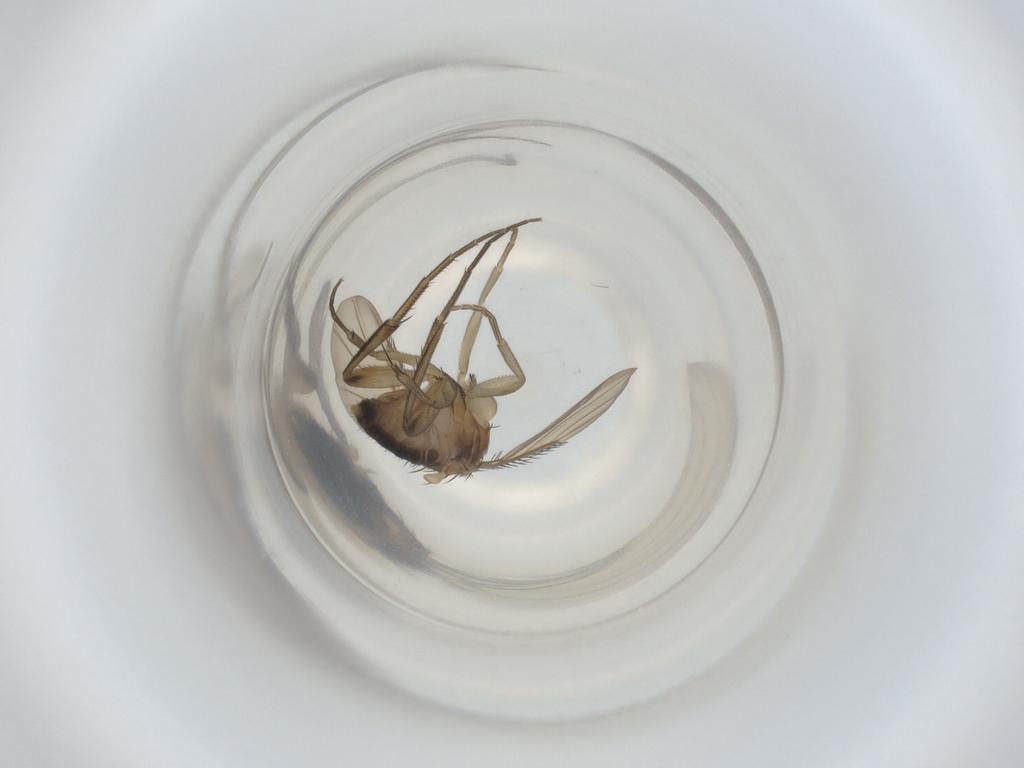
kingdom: Animalia
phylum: Arthropoda
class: Insecta
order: Diptera
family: Phoridae
